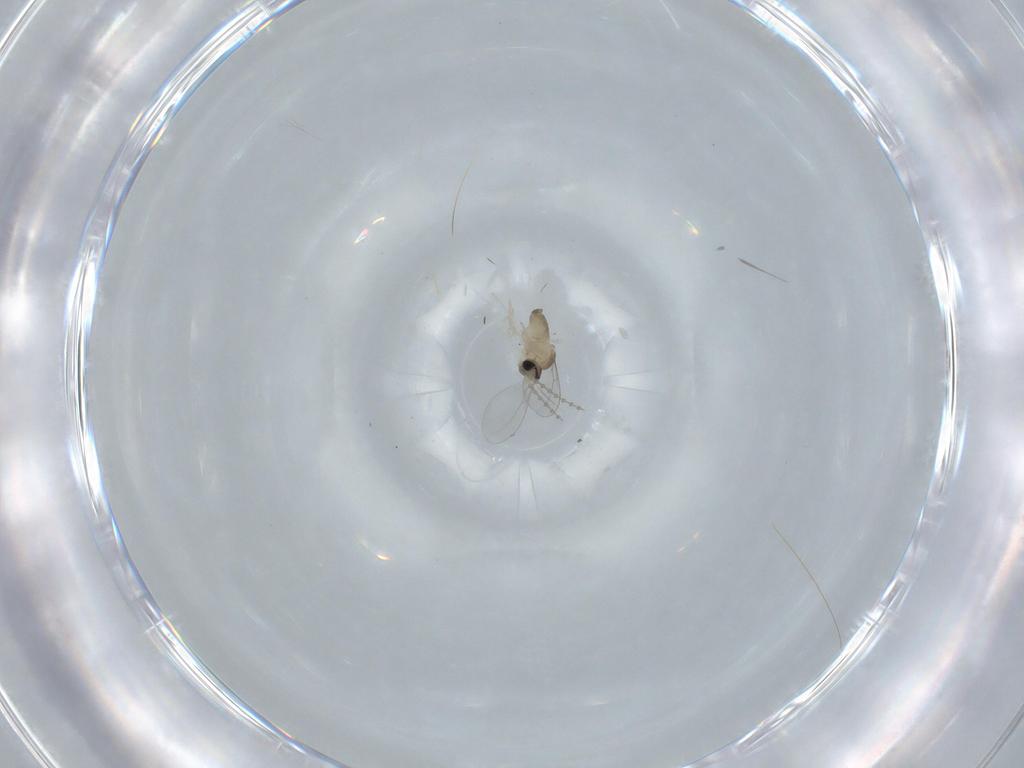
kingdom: Animalia
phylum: Arthropoda
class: Insecta
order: Diptera
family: Cecidomyiidae
